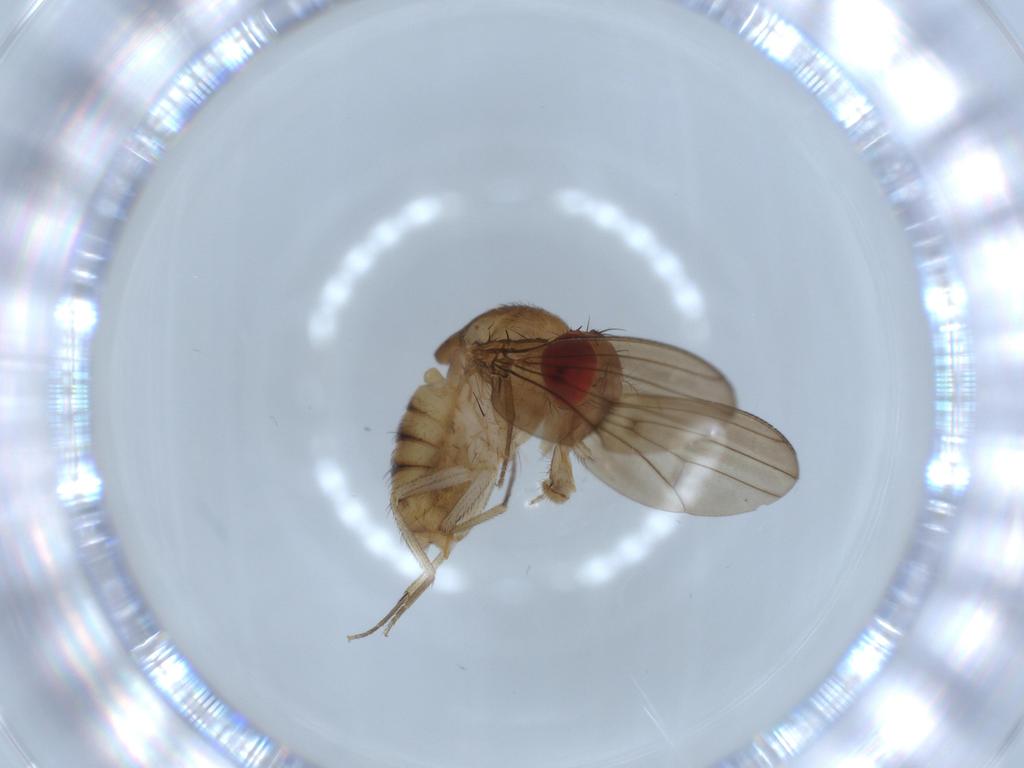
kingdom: Animalia
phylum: Arthropoda
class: Insecta
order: Diptera
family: Drosophilidae
